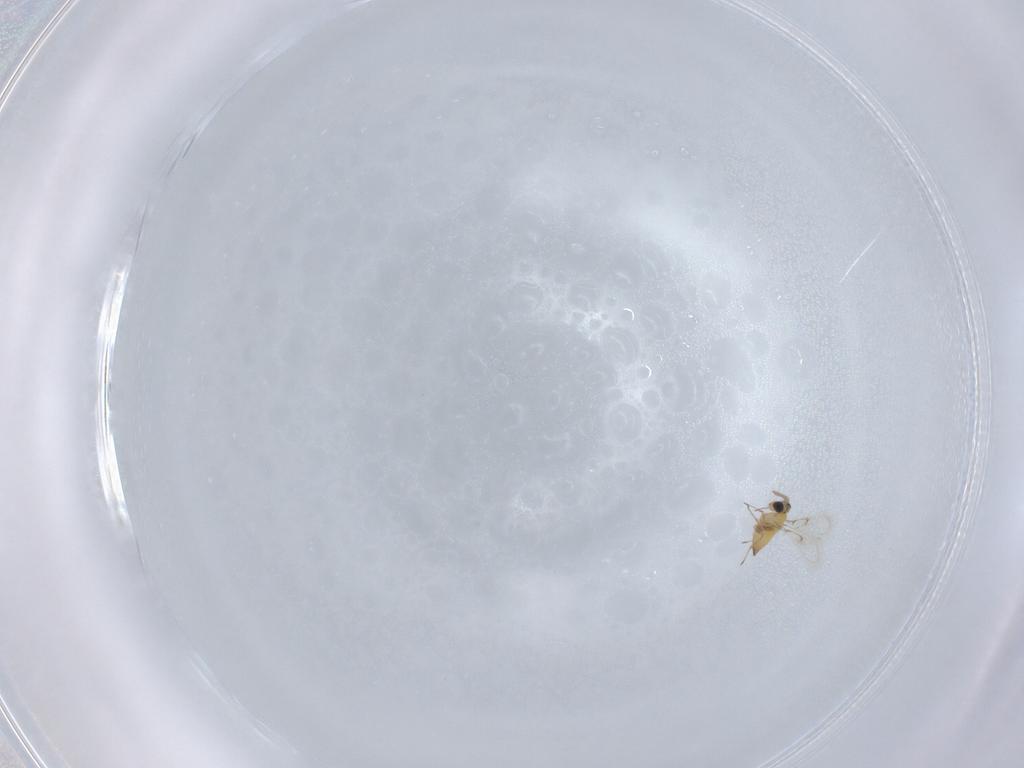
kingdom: Animalia
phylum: Arthropoda
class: Insecta
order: Hymenoptera
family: Trichogrammatidae
